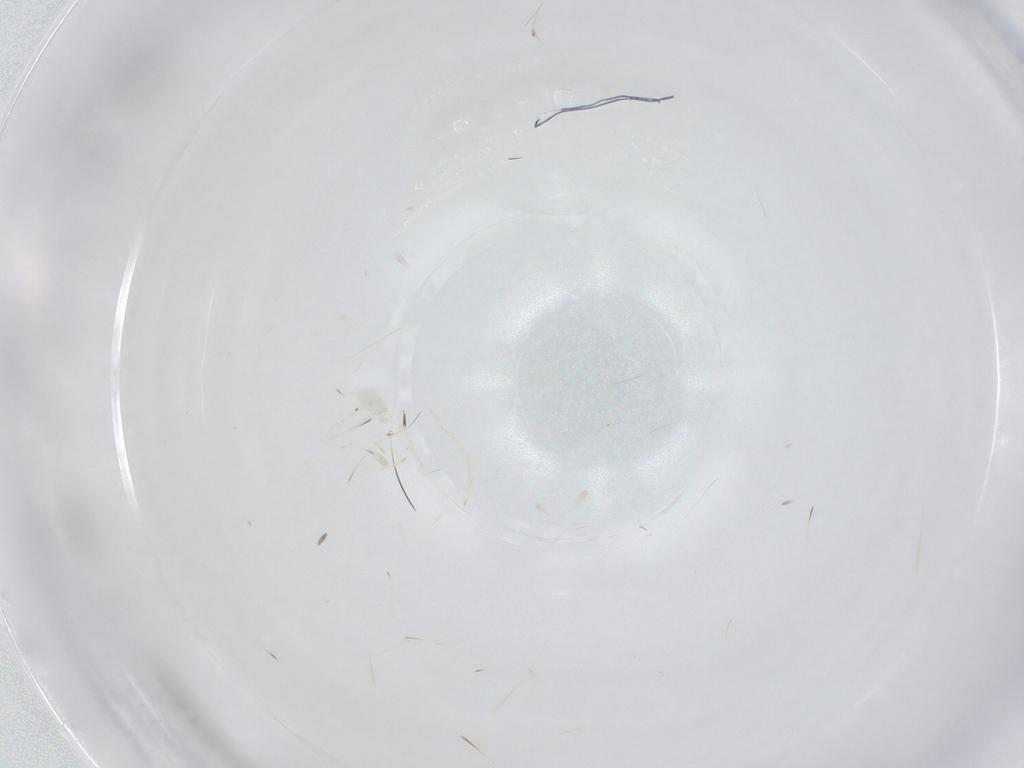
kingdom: Animalia
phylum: Arthropoda
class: Insecta
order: Hymenoptera
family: Scelionidae
